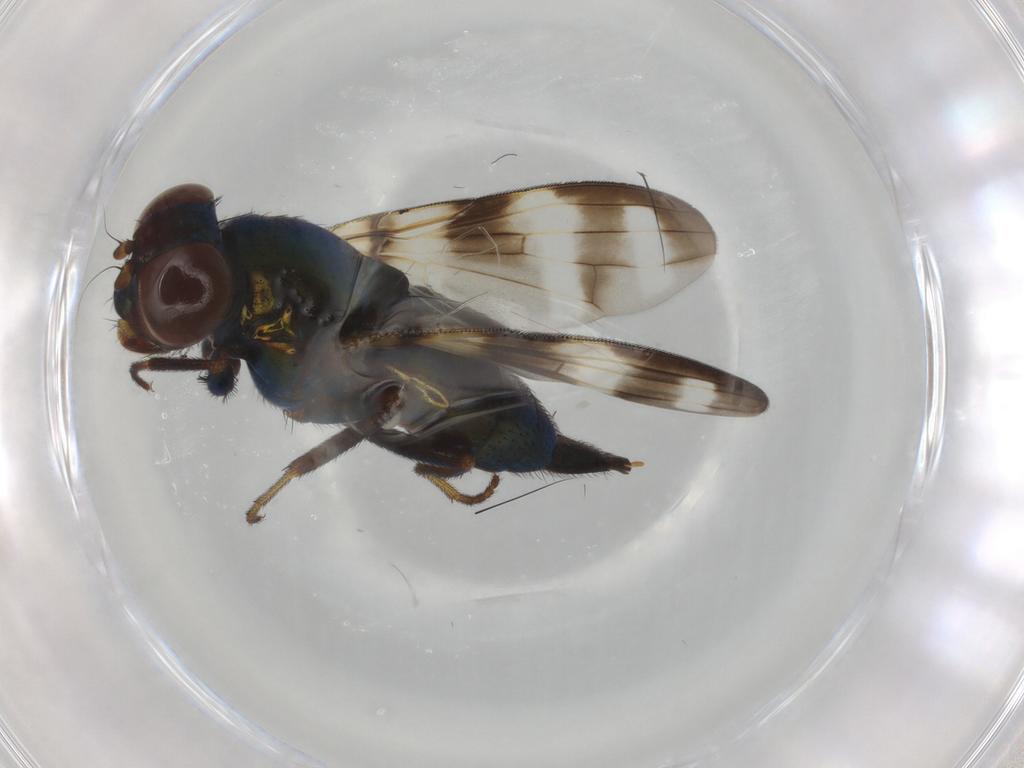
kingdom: Animalia
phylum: Arthropoda
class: Insecta
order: Diptera
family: Ulidiidae
